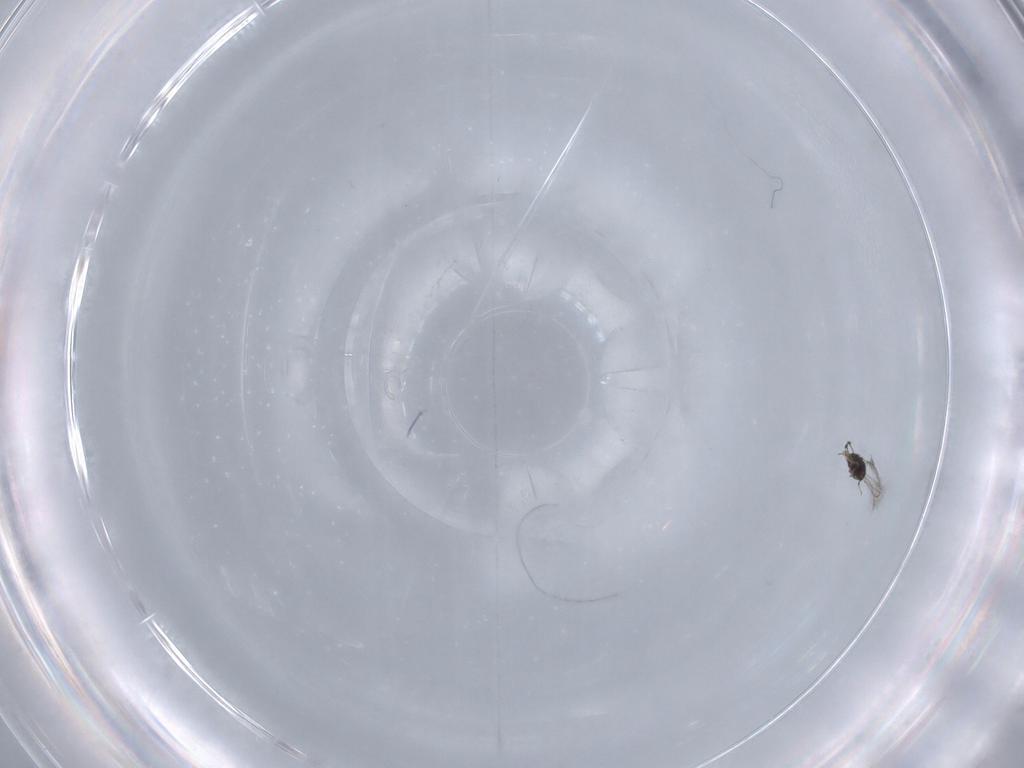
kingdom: Animalia
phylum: Arthropoda
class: Insecta
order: Hymenoptera
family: Mymaridae
